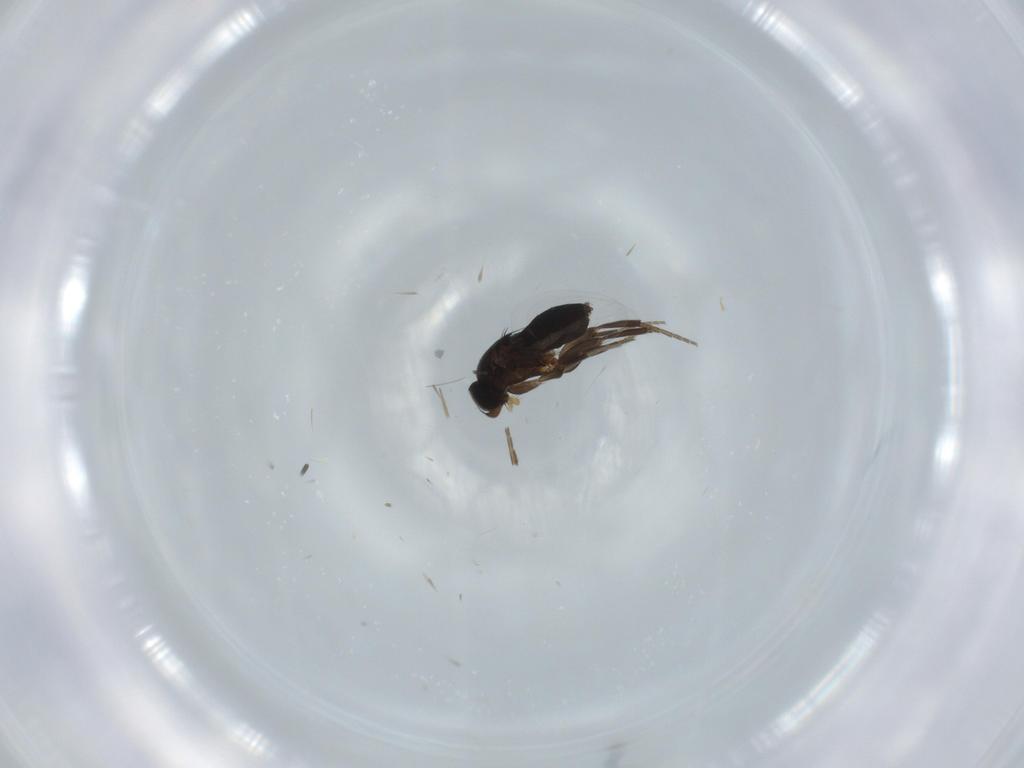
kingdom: Animalia
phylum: Arthropoda
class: Insecta
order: Diptera
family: Phoridae
